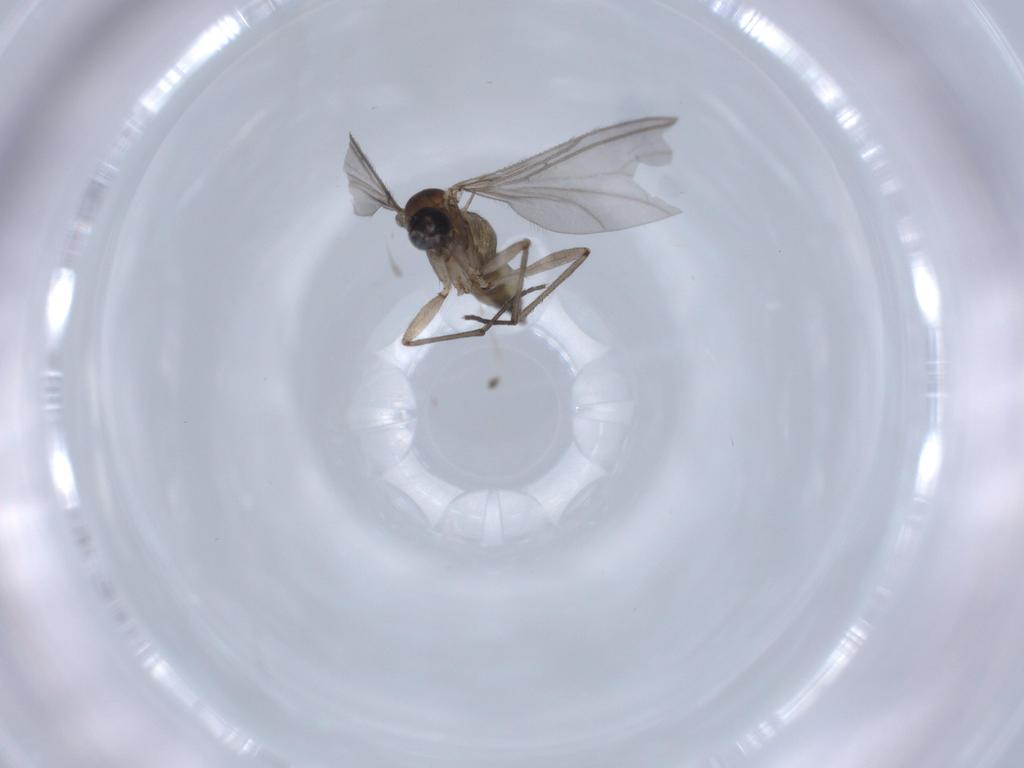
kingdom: Animalia
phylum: Arthropoda
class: Insecta
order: Diptera
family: Sciaridae
